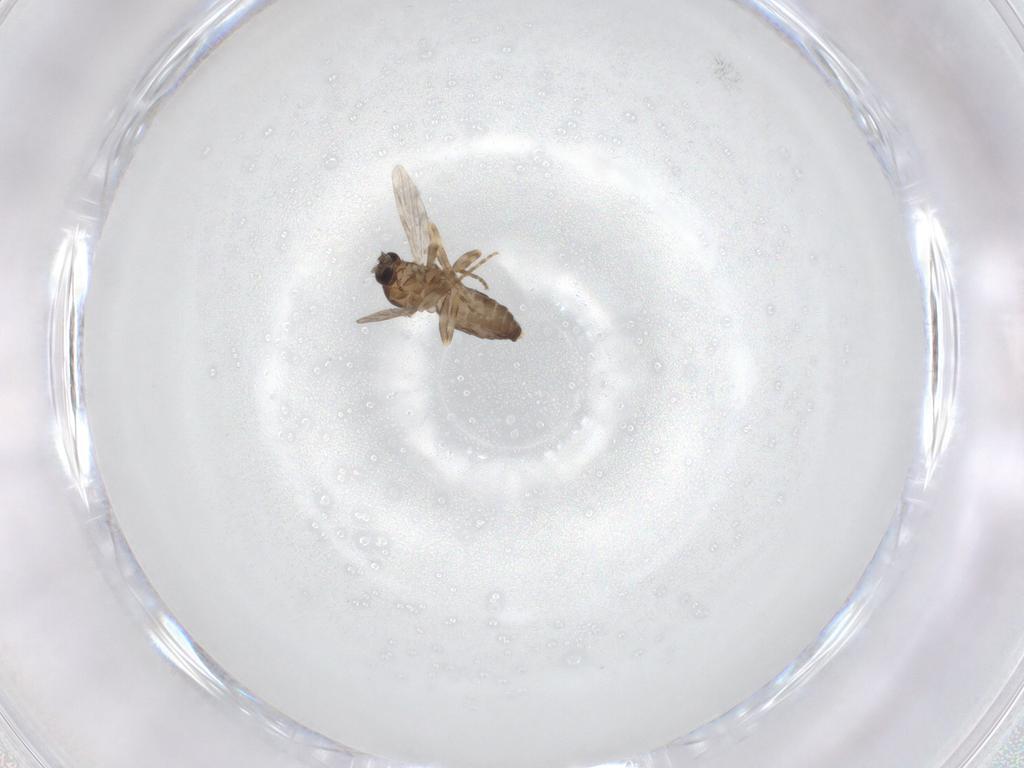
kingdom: Animalia
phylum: Arthropoda
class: Insecta
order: Diptera
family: Ceratopogonidae
